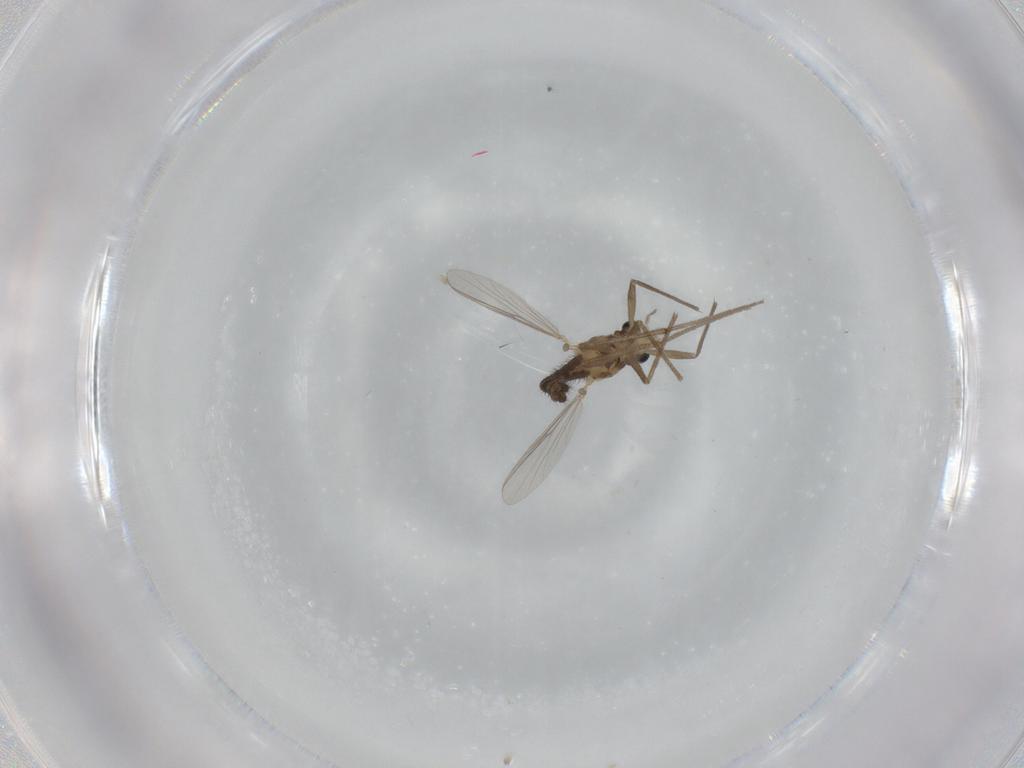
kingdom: Animalia
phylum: Arthropoda
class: Insecta
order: Diptera
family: Chironomidae
